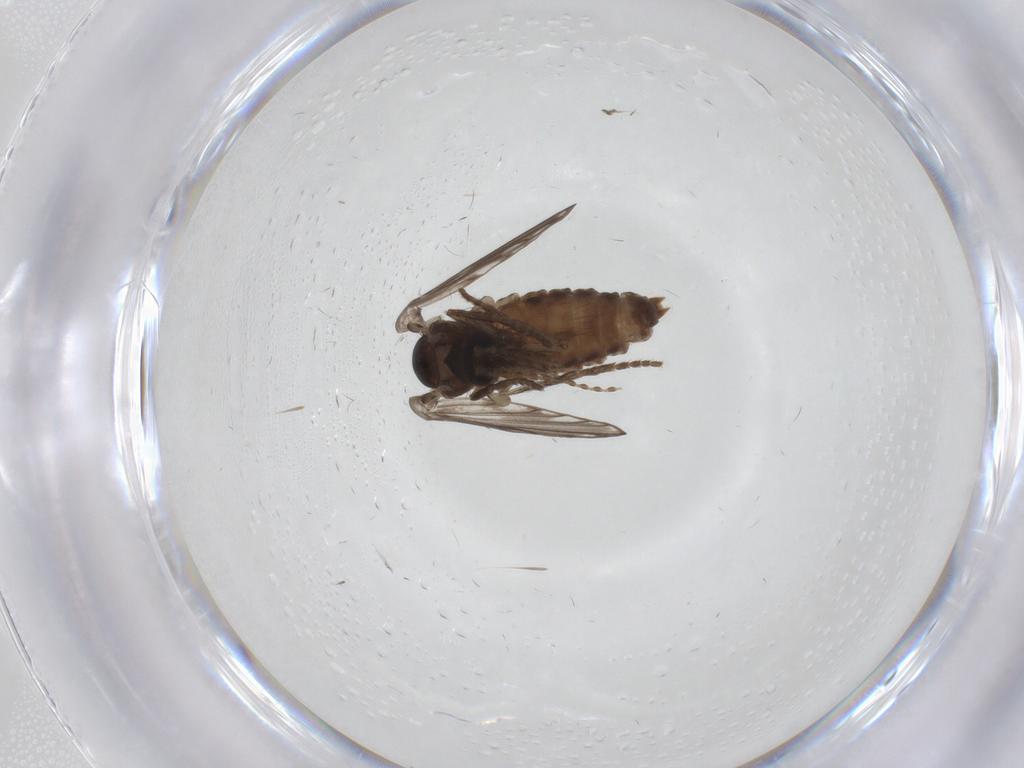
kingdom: Animalia
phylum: Arthropoda
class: Insecta
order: Diptera
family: Psychodidae
